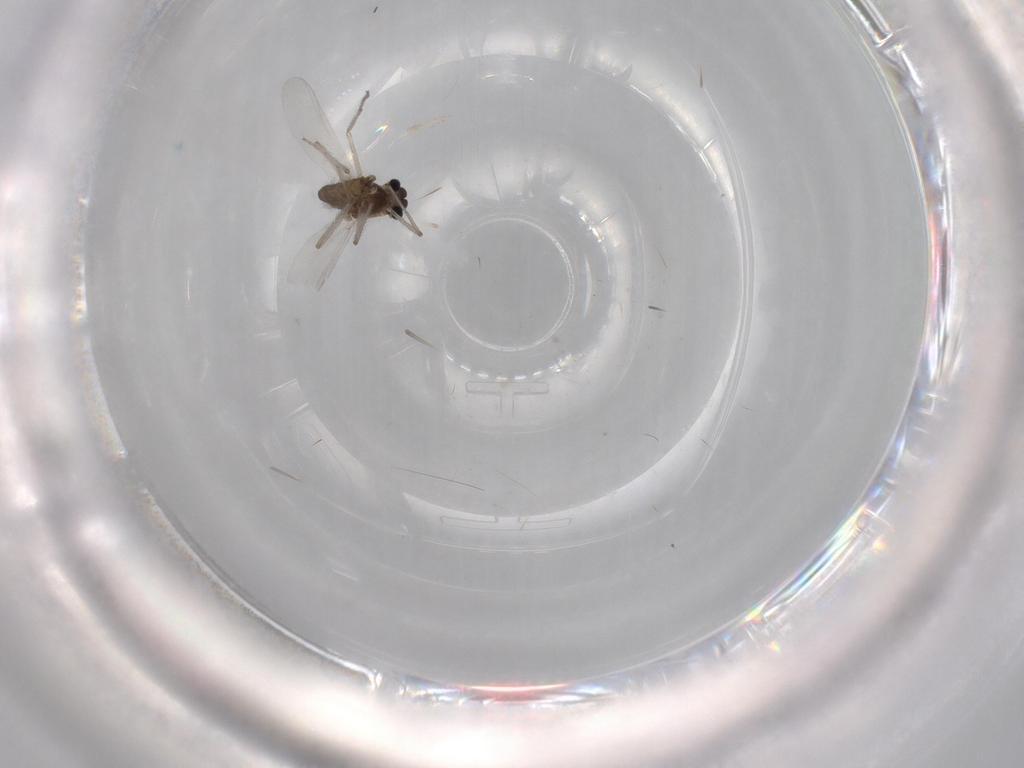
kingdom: Animalia
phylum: Arthropoda
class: Insecta
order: Diptera
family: Chironomidae
